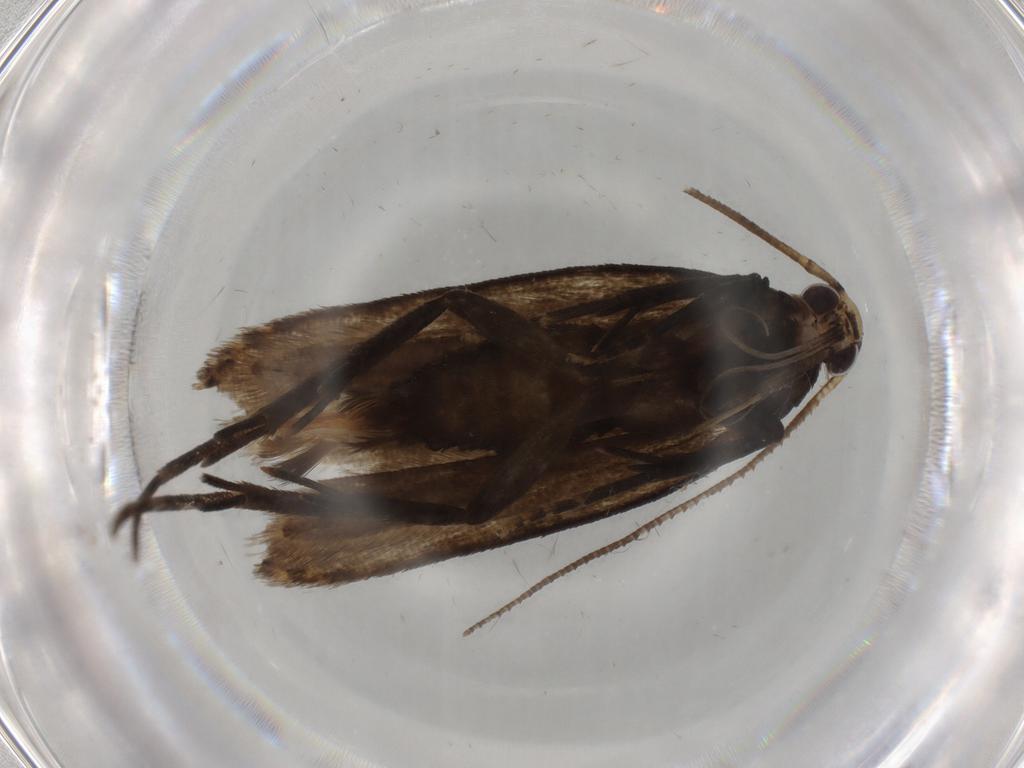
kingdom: Animalia
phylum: Arthropoda
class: Insecta
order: Lepidoptera
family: Cosmopterigidae
